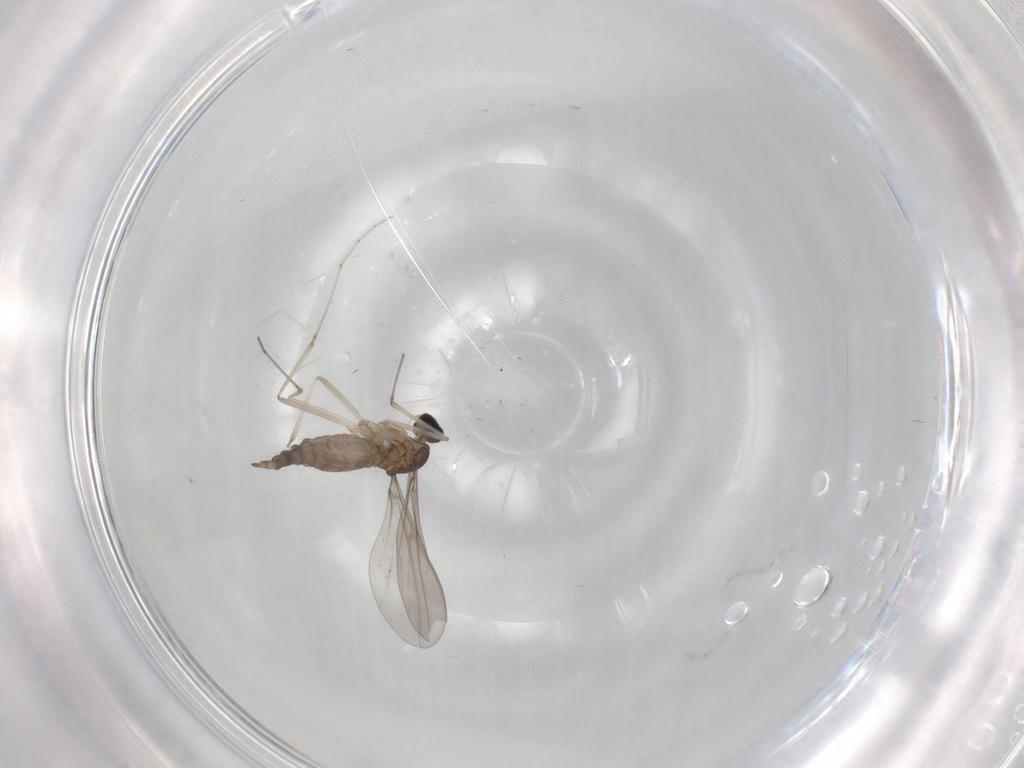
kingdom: Animalia
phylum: Arthropoda
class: Insecta
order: Diptera
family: Cecidomyiidae
